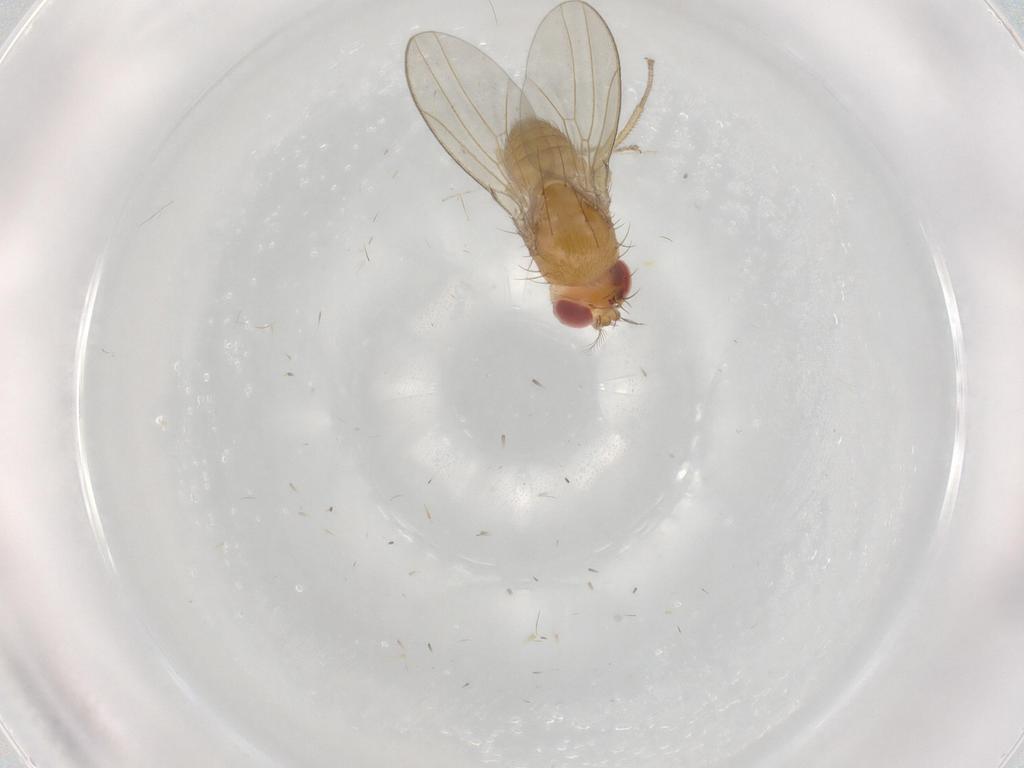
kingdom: Animalia
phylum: Arthropoda
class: Insecta
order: Diptera
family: Drosophilidae
